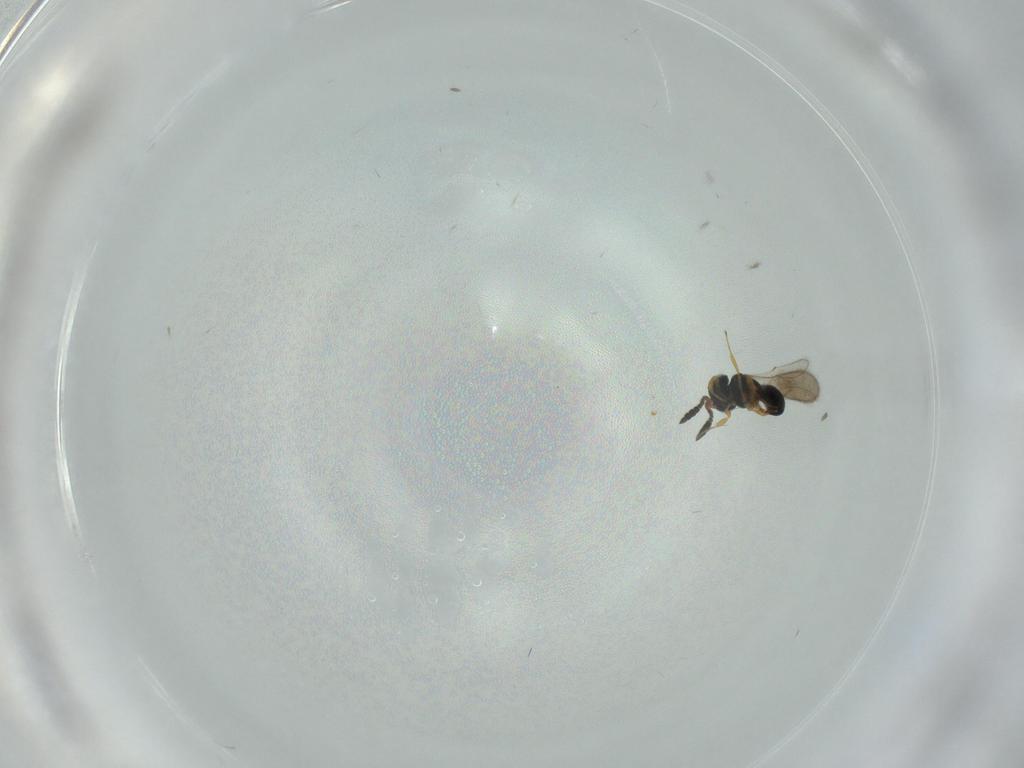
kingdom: Animalia
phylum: Arthropoda
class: Insecta
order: Hymenoptera
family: Scelionidae
